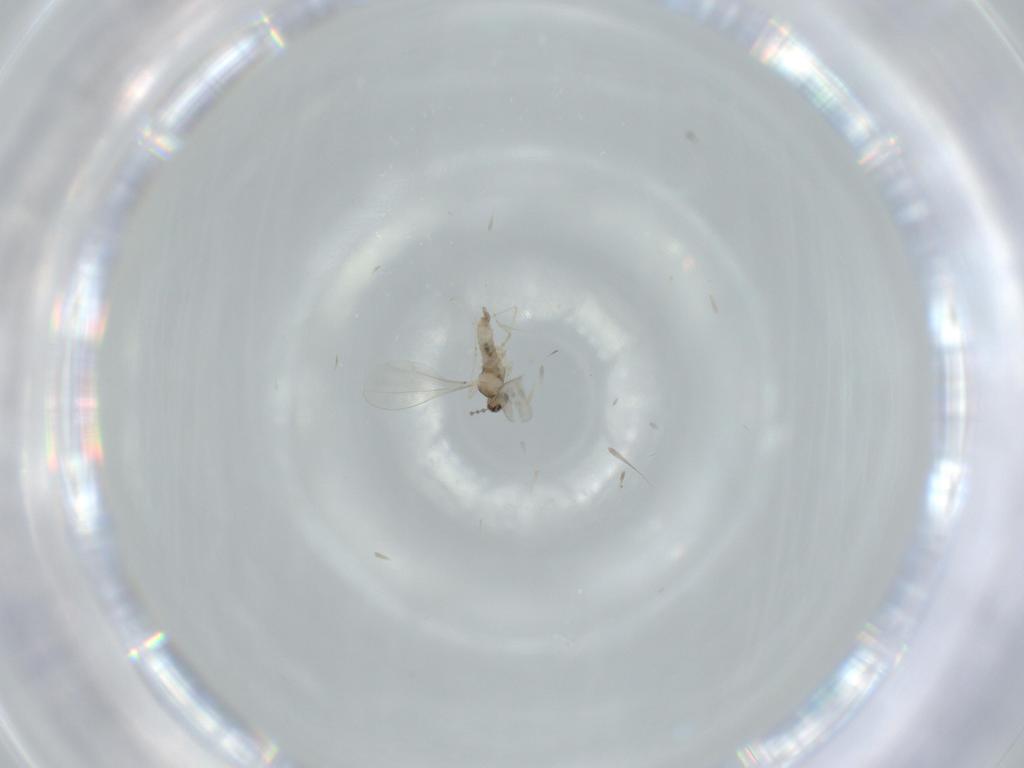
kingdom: Animalia
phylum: Arthropoda
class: Insecta
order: Diptera
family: Cecidomyiidae
